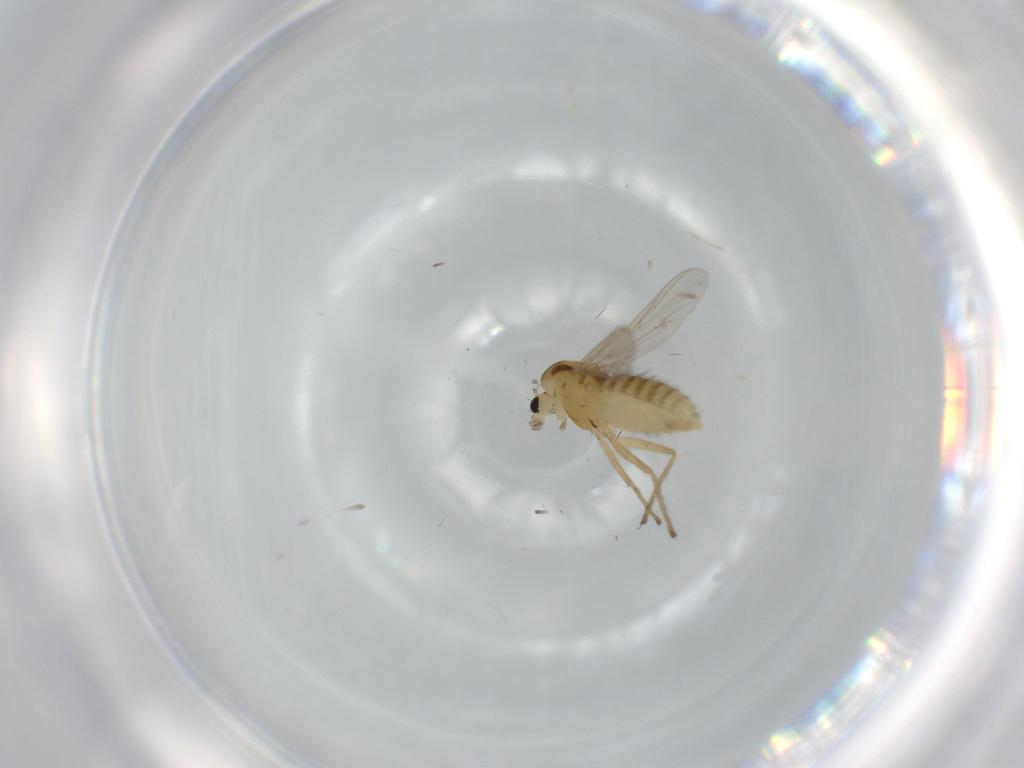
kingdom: Animalia
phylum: Arthropoda
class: Insecta
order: Diptera
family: Chironomidae
